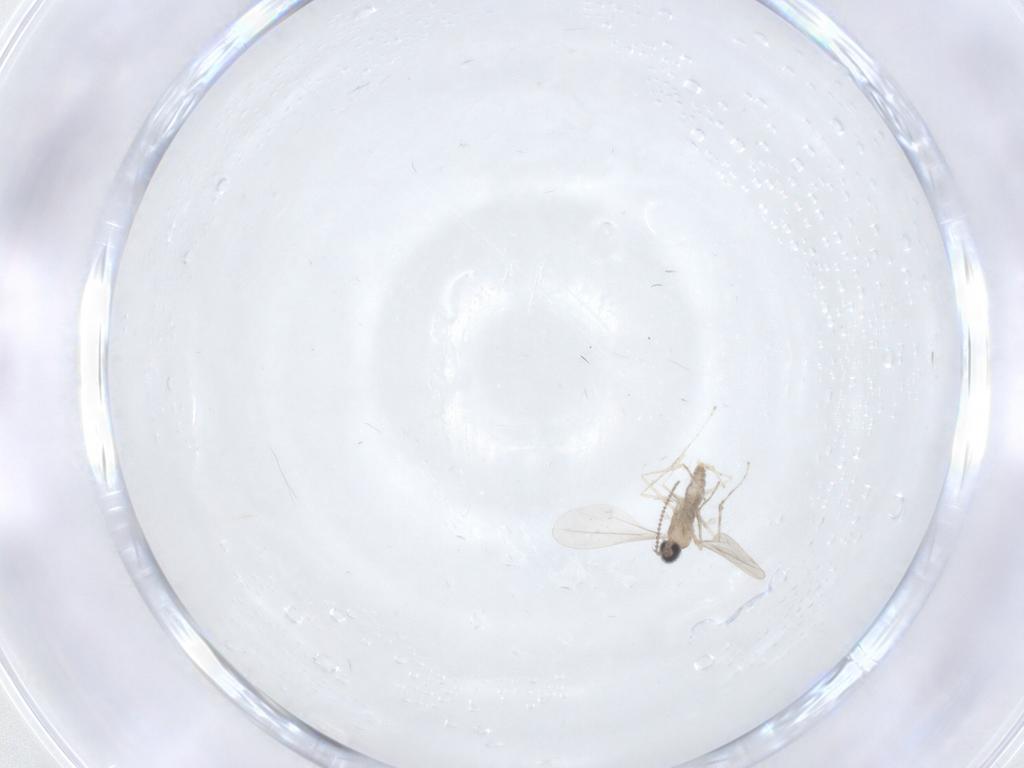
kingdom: Animalia
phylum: Arthropoda
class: Insecta
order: Diptera
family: Cecidomyiidae
